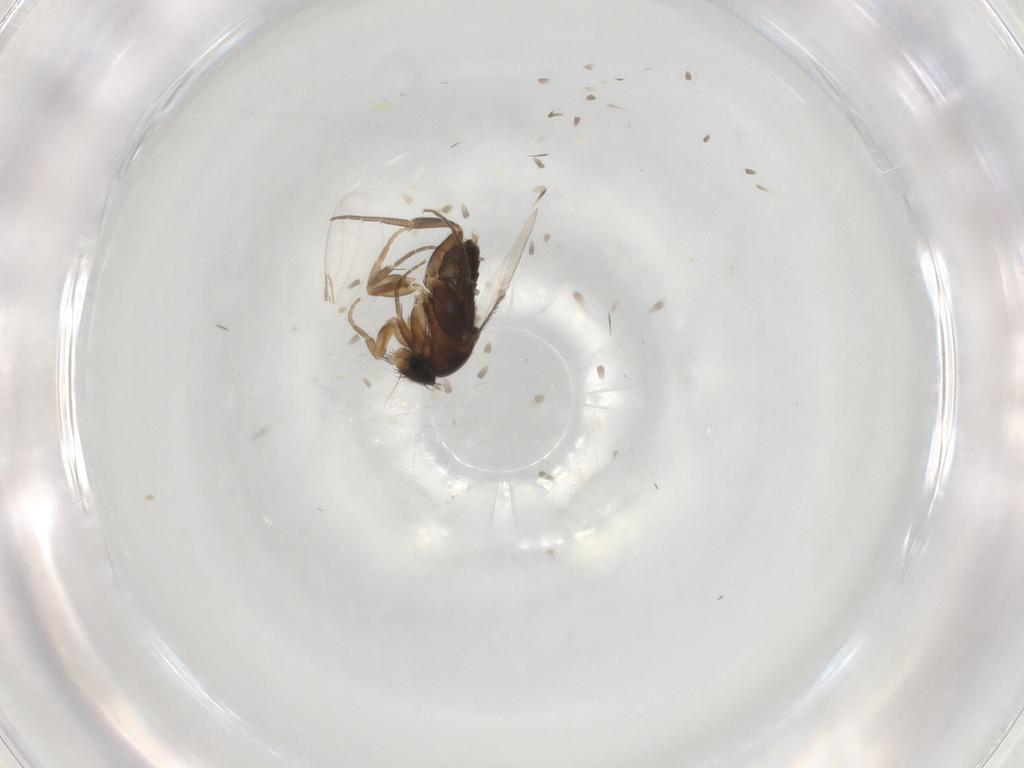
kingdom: Animalia
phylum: Arthropoda
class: Insecta
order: Diptera
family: Phoridae
